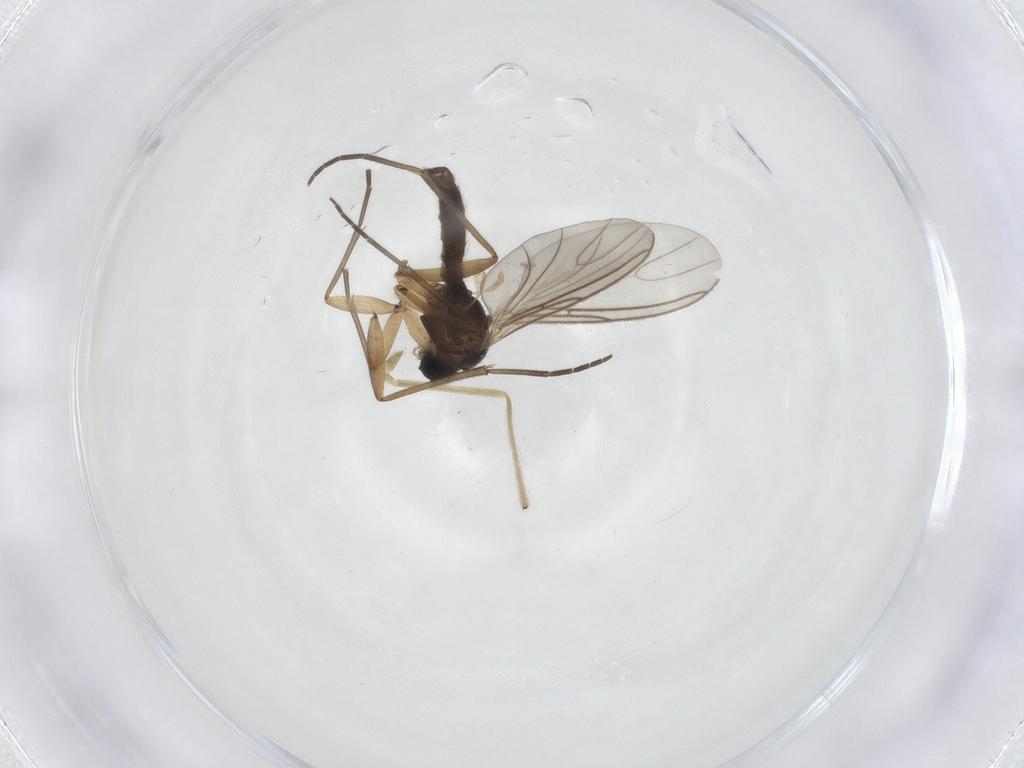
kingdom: Animalia
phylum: Arthropoda
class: Insecta
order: Diptera
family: Sciaridae
